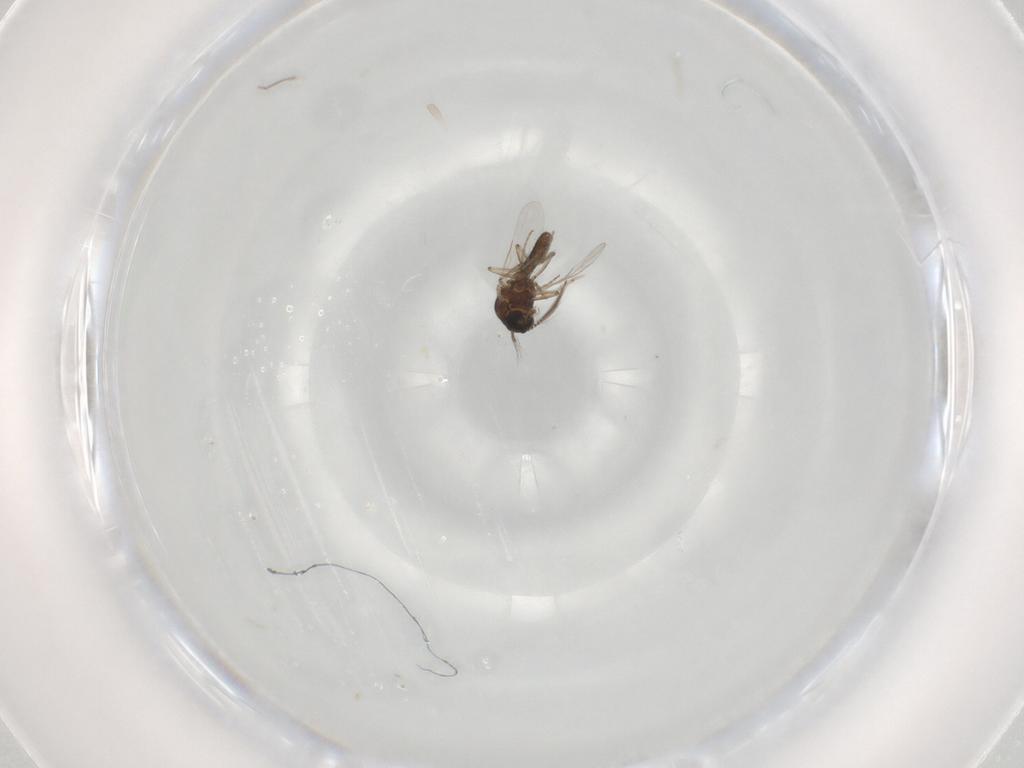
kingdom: Animalia
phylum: Arthropoda
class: Insecta
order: Diptera
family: Ceratopogonidae
